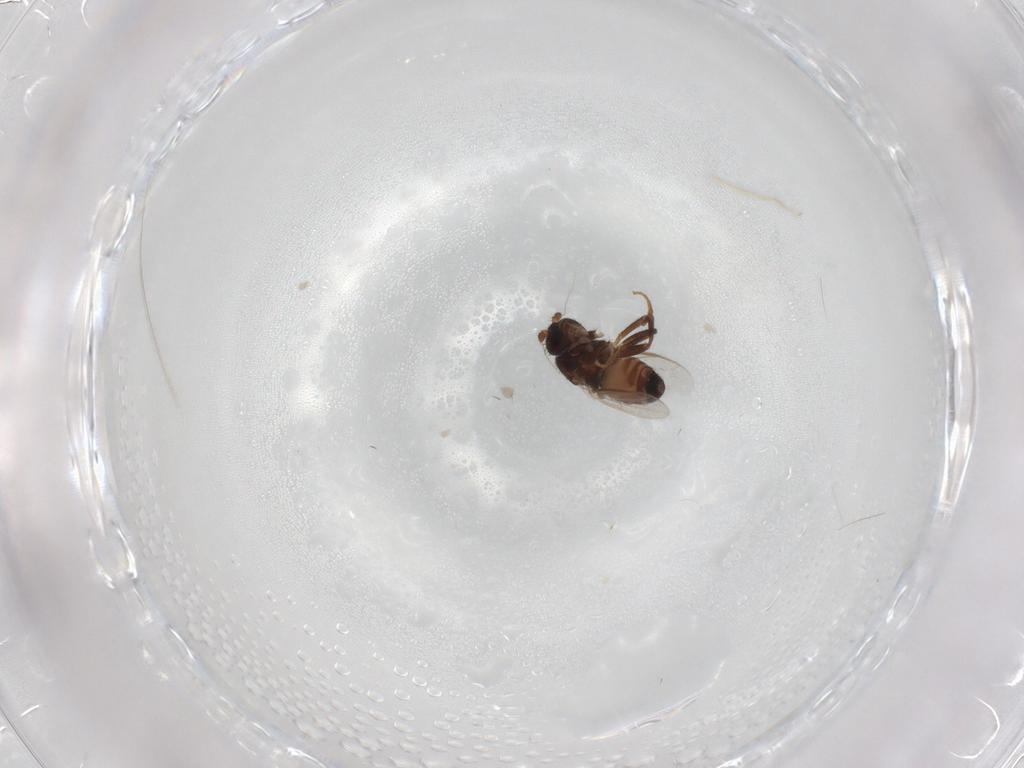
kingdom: Animalia
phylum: Arthropoda
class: Insecta
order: Diptera
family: Sphaeroceridae
